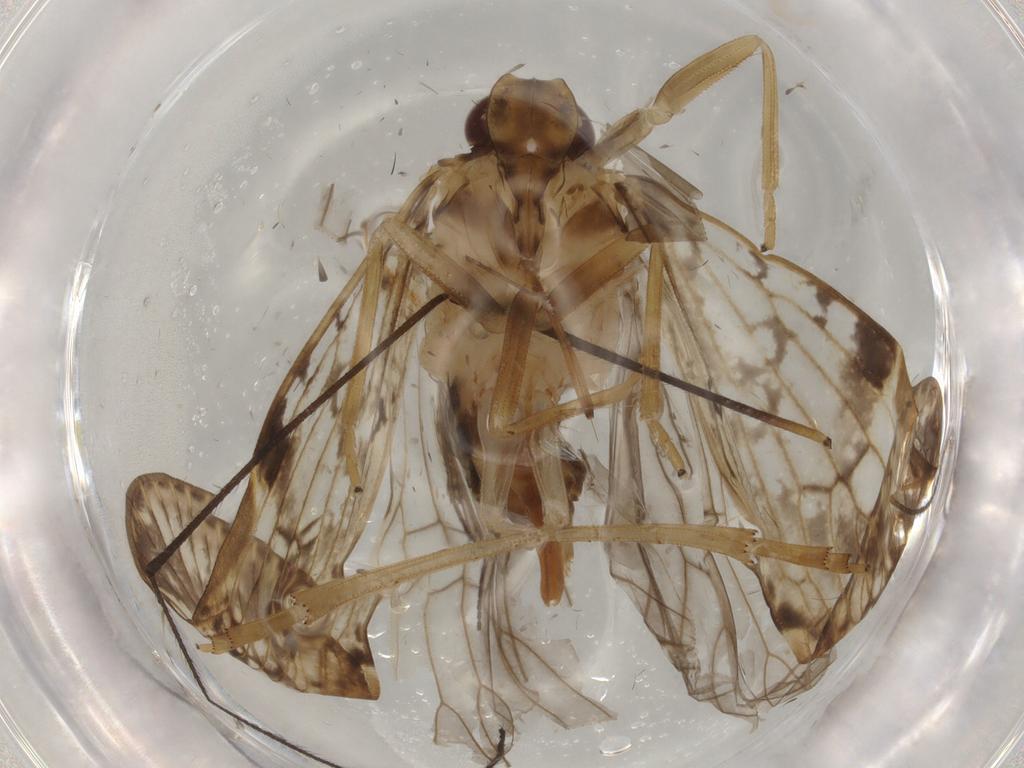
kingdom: Animalia
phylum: Arthropoda
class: Insecta
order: Hemiptera
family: Cixiidae
